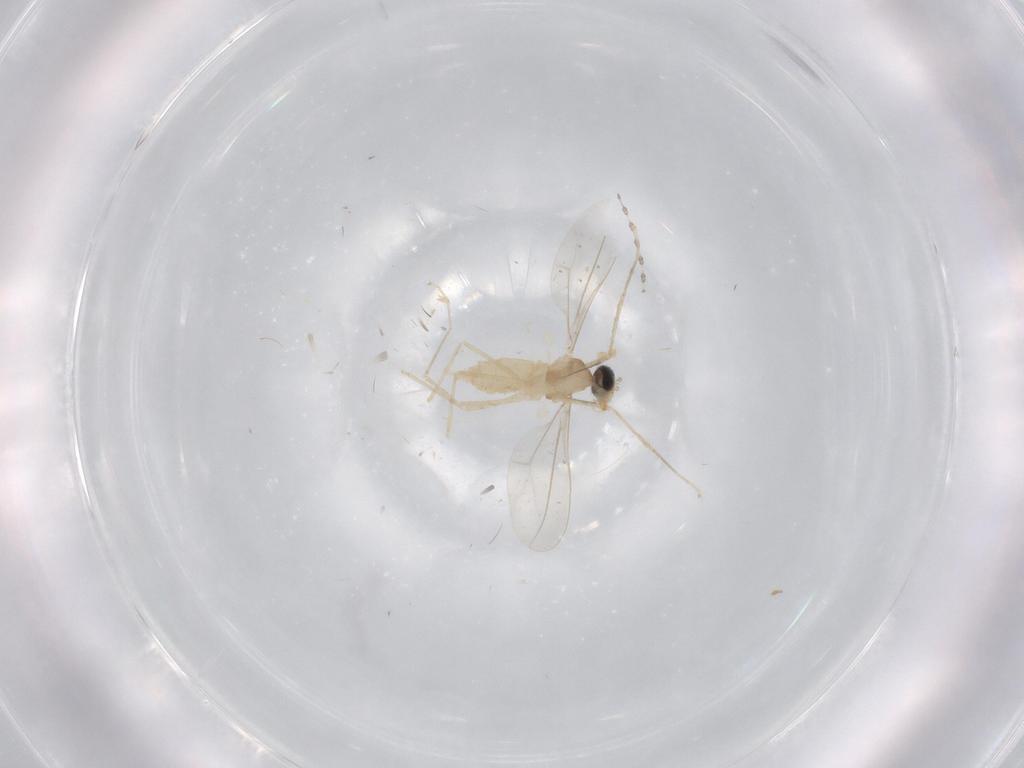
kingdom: Animalia
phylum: Arthropoda
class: Insecta
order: Diptera
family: Cecidomyiidae
